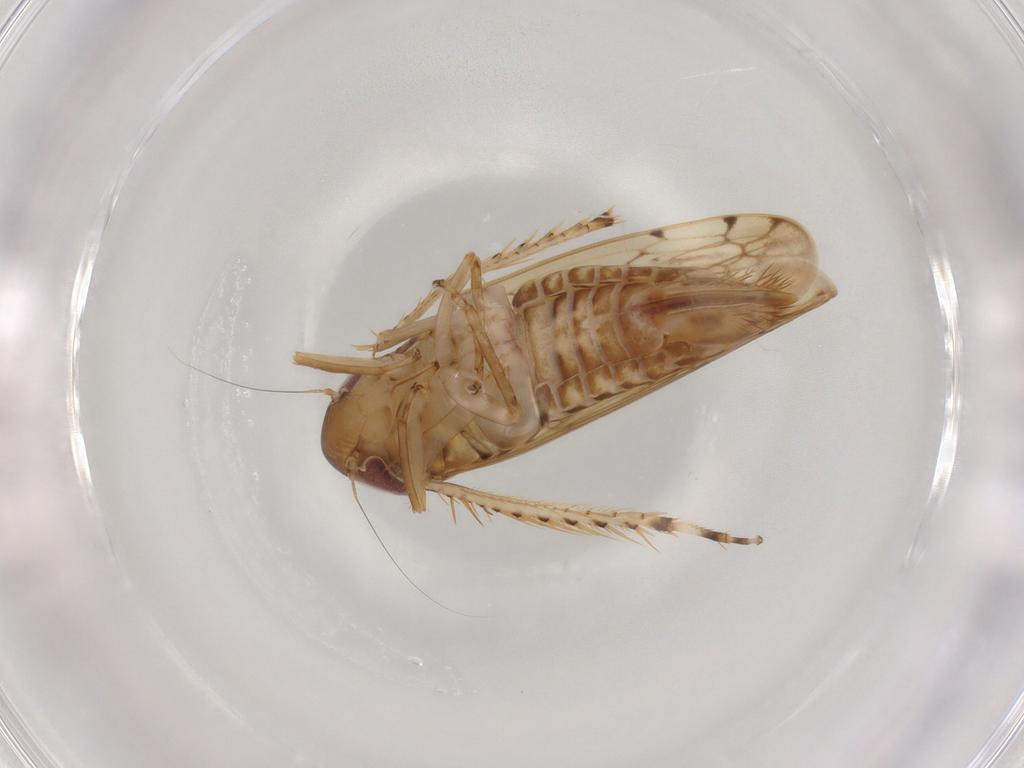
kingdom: Animalia
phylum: Arthropoda
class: Insecta
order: Hemiptera
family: Cicadellidae
